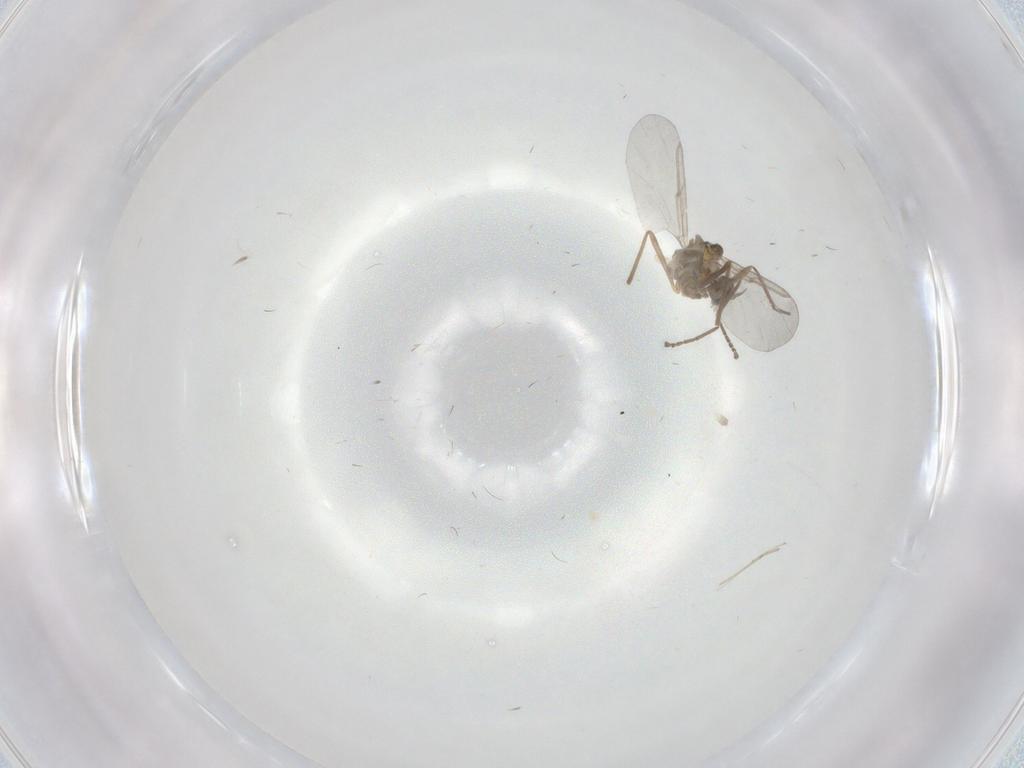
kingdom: Animalia
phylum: Arthropoda
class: Insecta
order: Diptera
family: Cecidomyiidae
